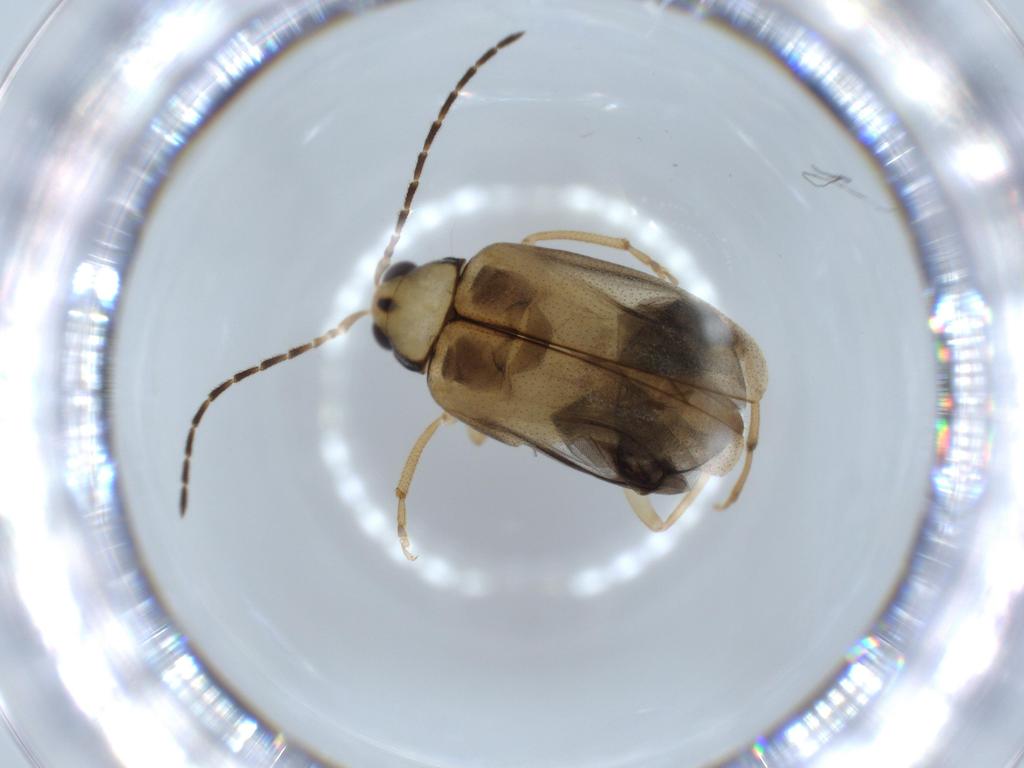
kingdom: Animalia
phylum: Arthropoda
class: Insecta
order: Coleoptera
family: Chrysomelidae
